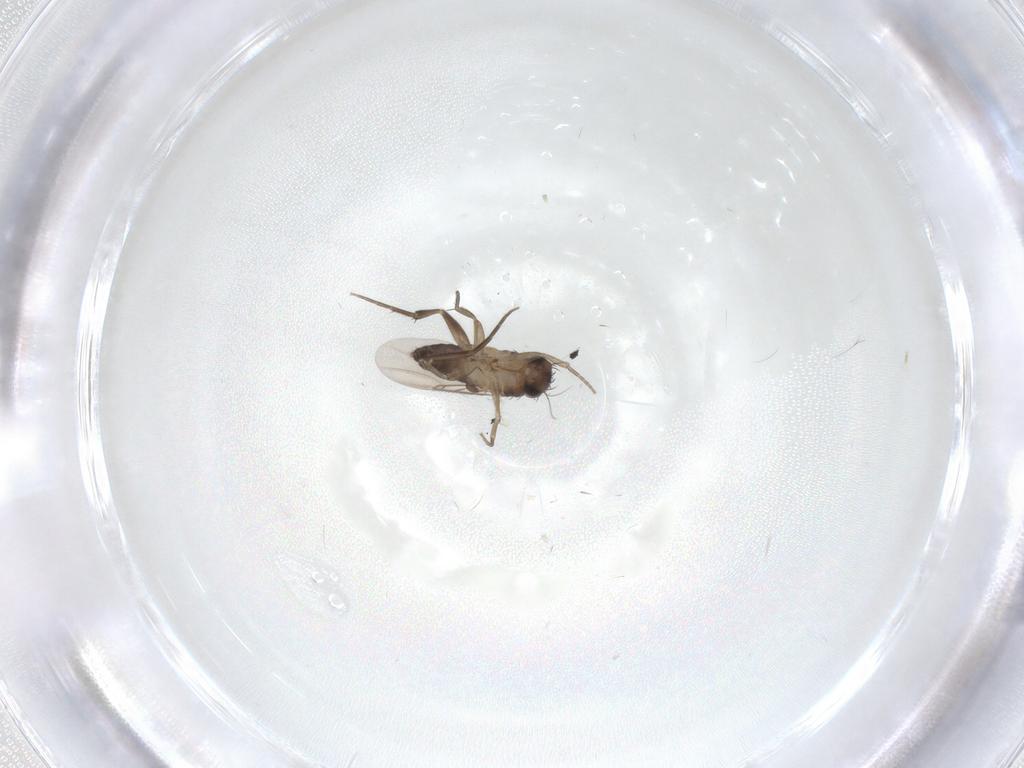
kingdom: Animalia
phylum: Arthropoda
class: Insecta
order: Diptera
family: Phoridae
